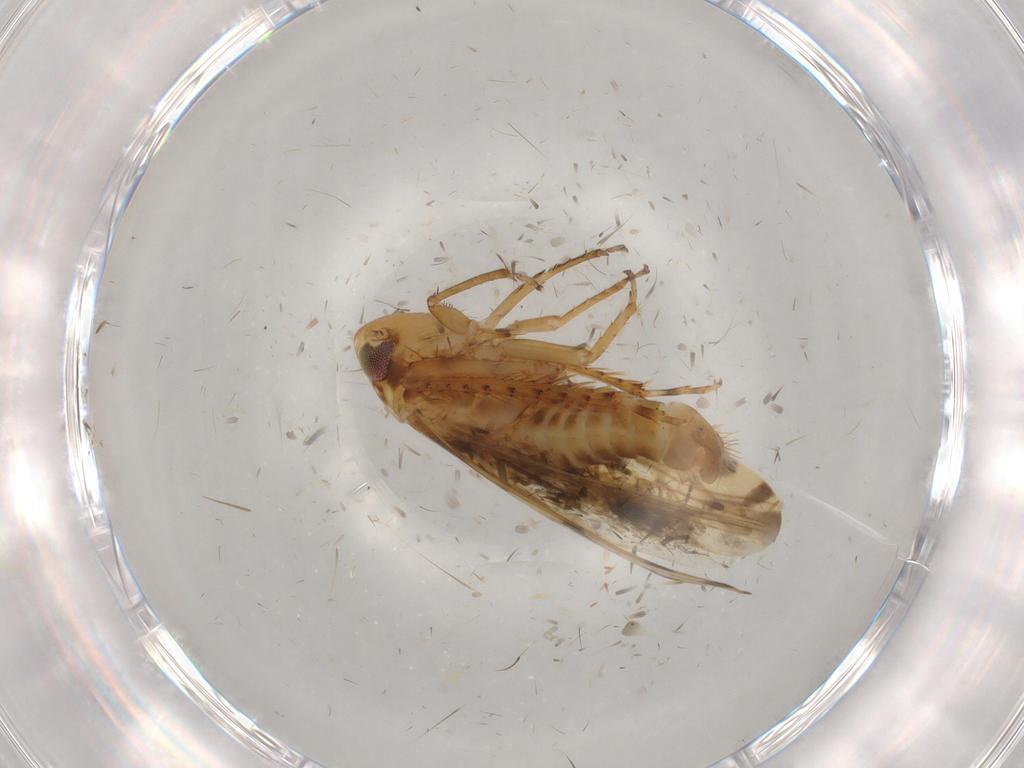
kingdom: Animalia
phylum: Arthropoda
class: Insecta
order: Hemiptera
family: Cicadellidae
